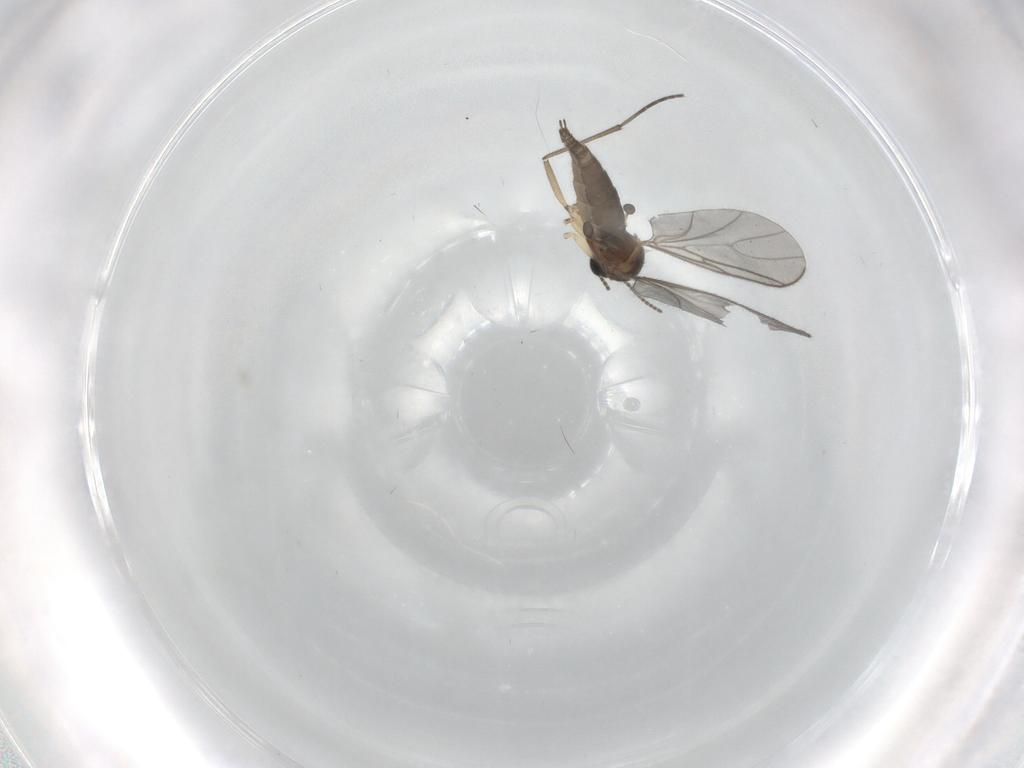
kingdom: Animalia
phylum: Arthropoda
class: Insecta
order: Diptera
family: Sciaridae
